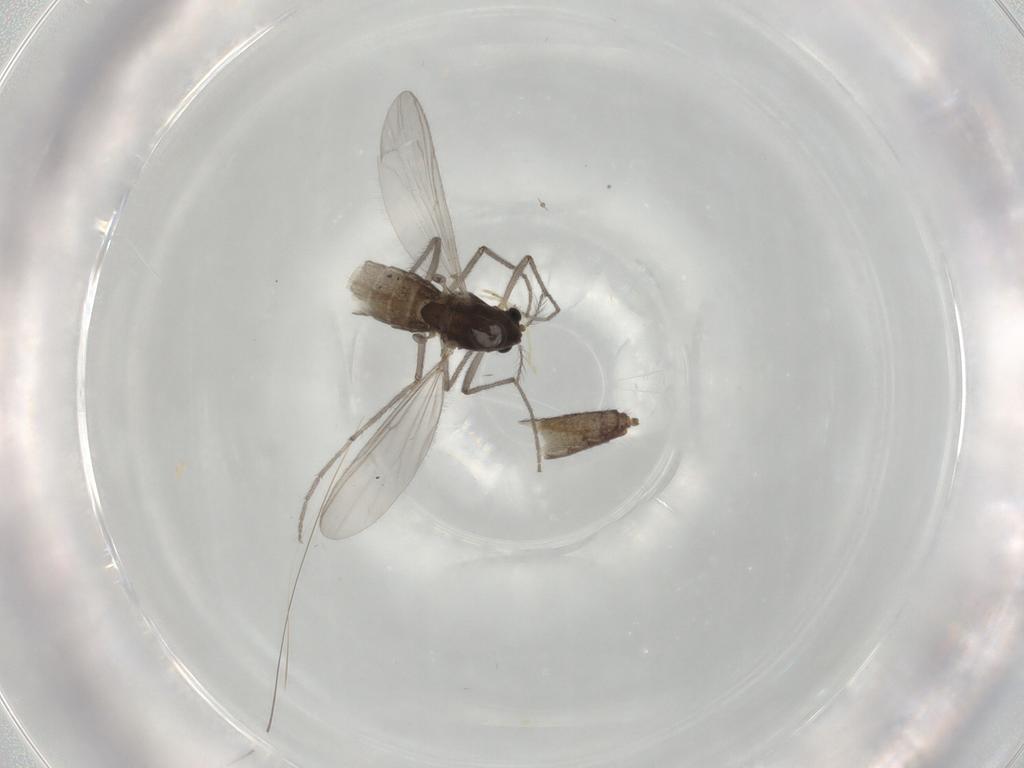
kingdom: Animalia
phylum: Arthropoda
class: Insecta
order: Diptera
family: Chironomidae
